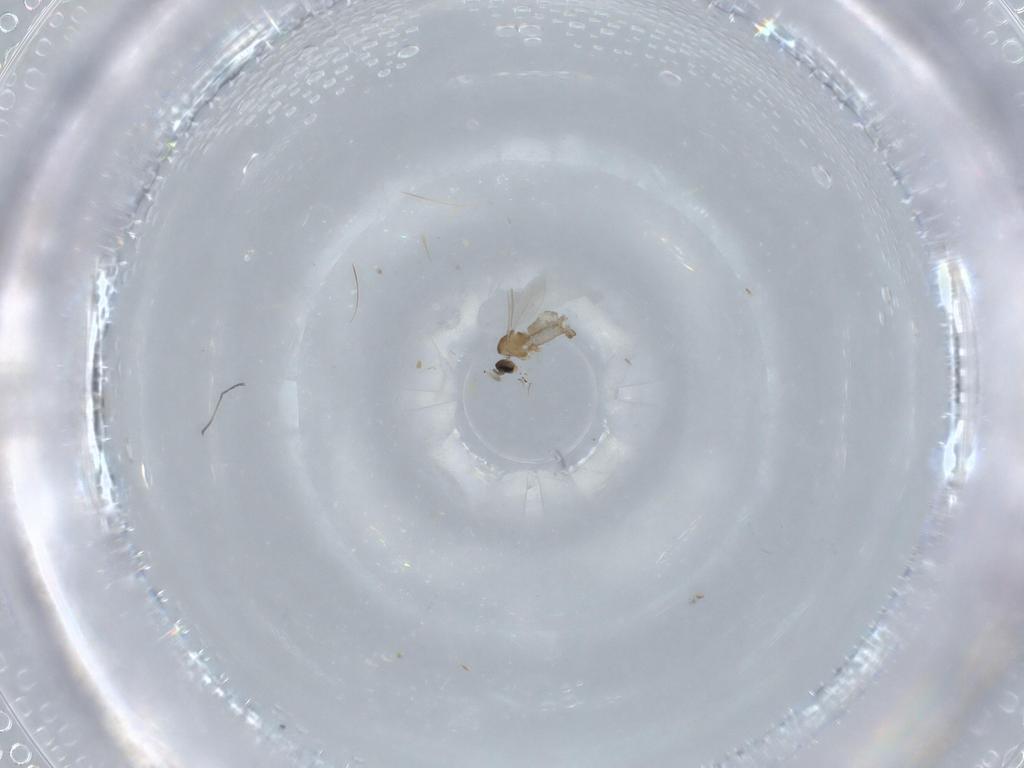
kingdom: Animalia
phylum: Arthropoda
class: Insecta
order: Diptera
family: Cecidomyiidae
